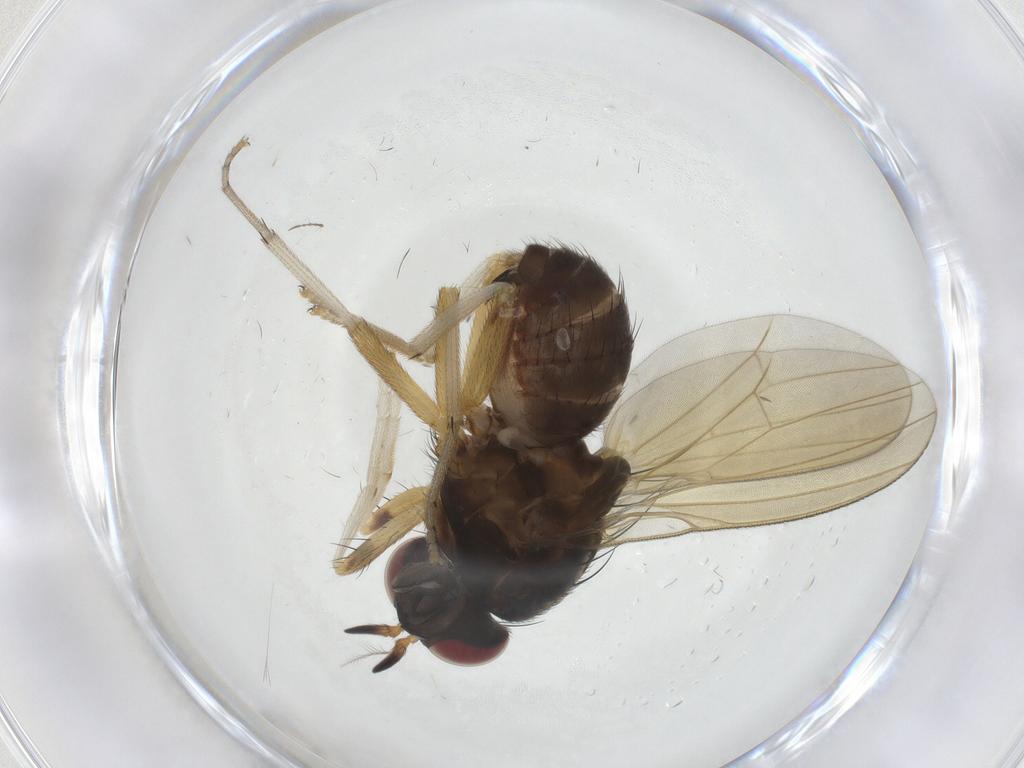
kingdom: Animalia
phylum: Arthropoda
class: Insecta
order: Diptera
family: Lauxaniidae
